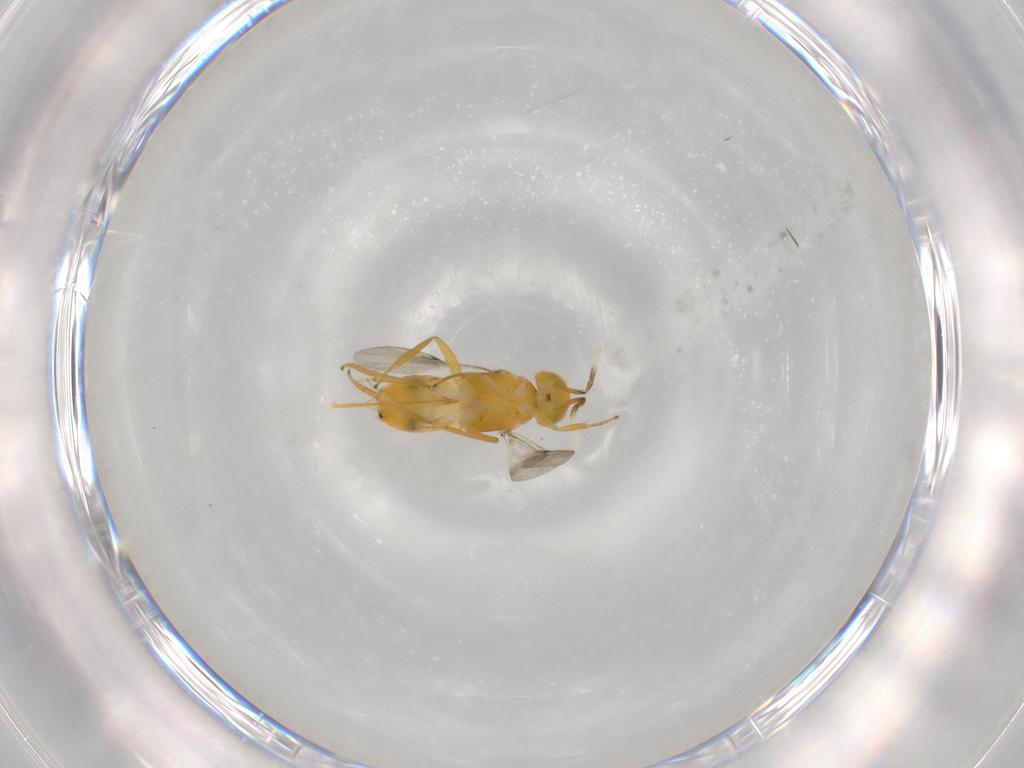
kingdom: Animalia
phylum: Arthropoda
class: Insecta
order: Hymenoptera
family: Encyrtidae
